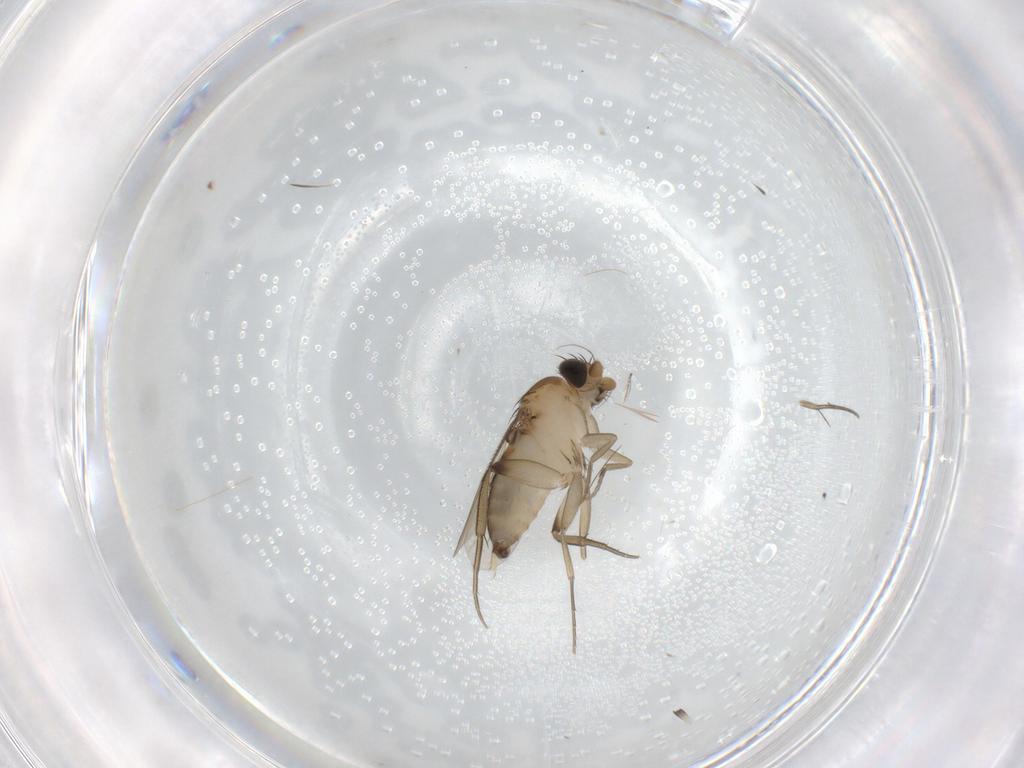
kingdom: Animalia
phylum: Arthropoda
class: Insecta
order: Diptera
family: Phoridae
